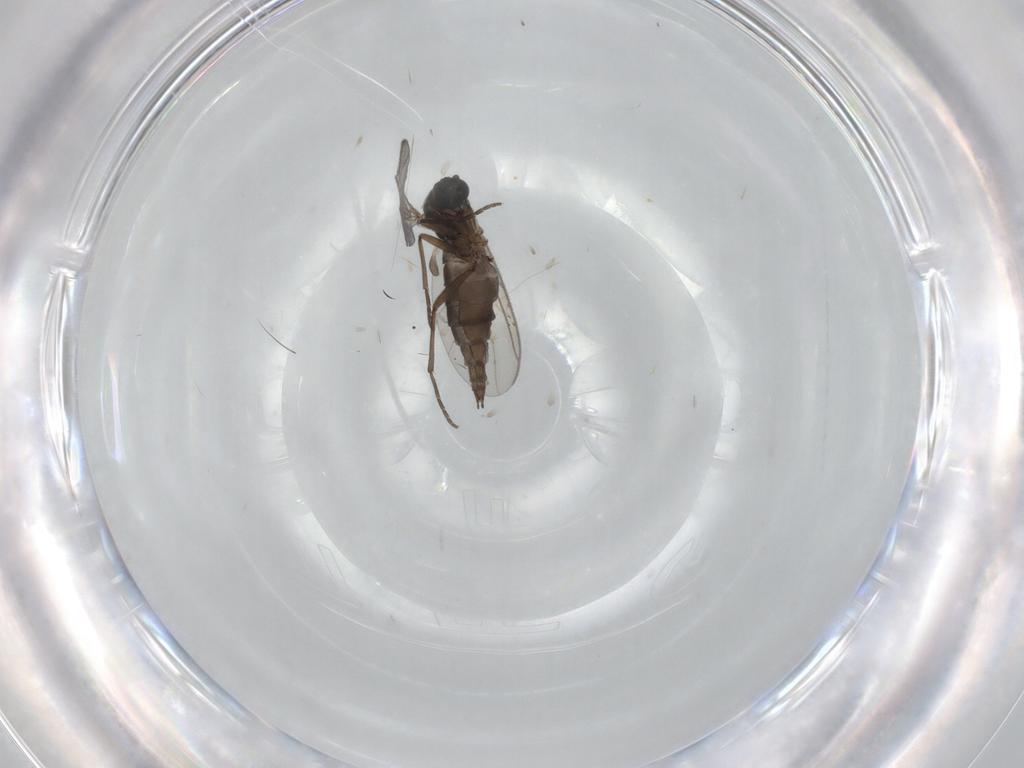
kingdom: Animalia
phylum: Arthropoda
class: Insecta
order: Diptera
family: Sciaridae
